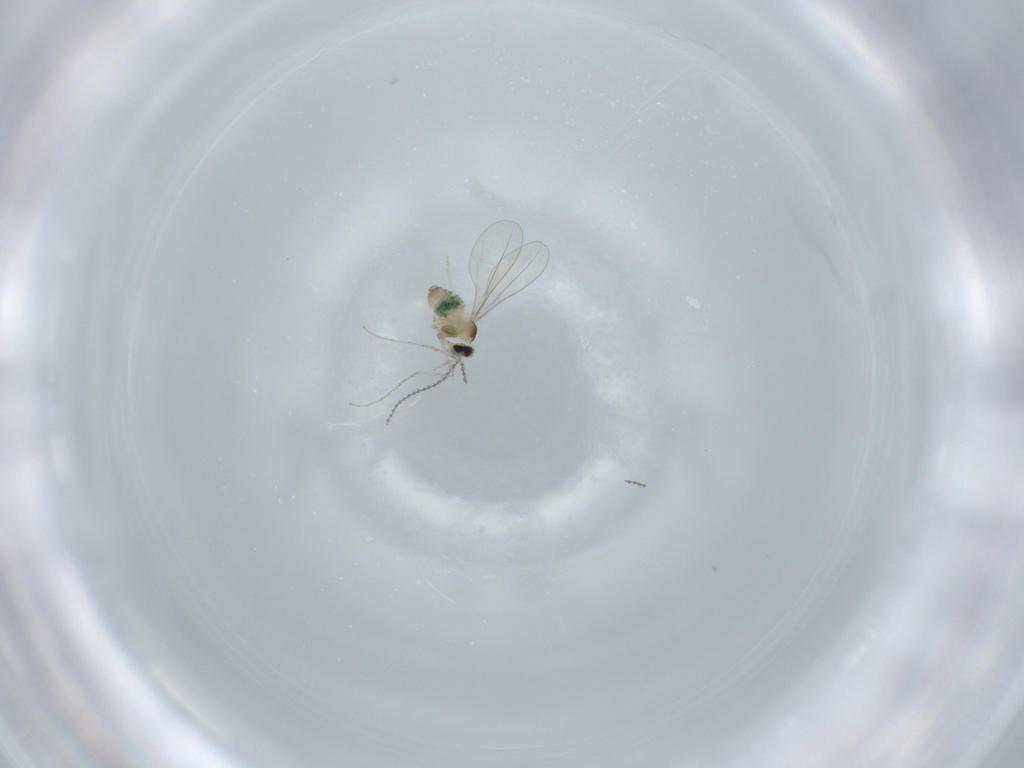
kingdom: Animalia
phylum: Arthropoda
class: Insecta
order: Diptera
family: Cecidomyiidae
